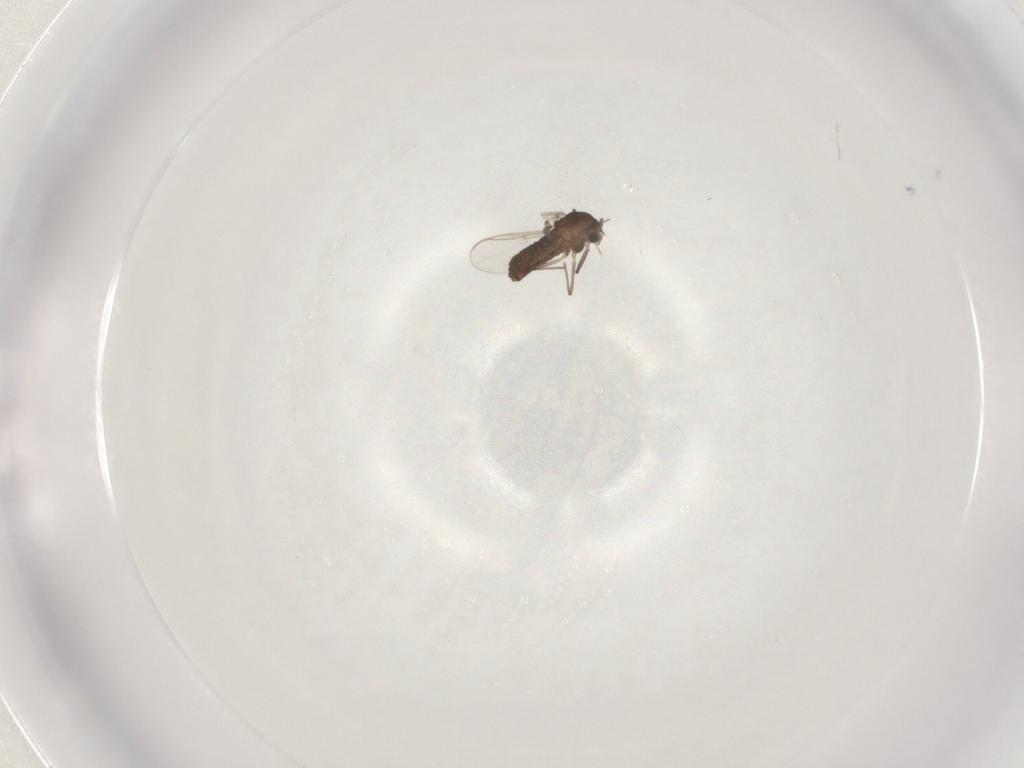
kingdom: Animalia
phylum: Arthropoda
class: Insecta
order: Diptera
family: Chironomidae
